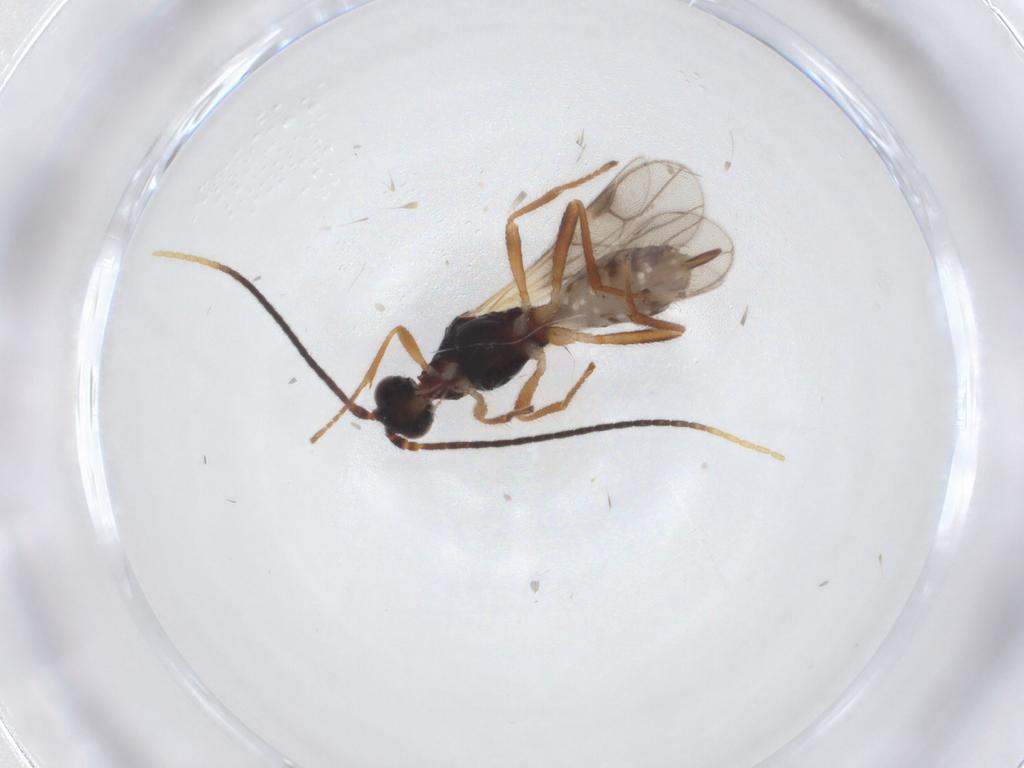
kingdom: Animalia
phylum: Arthropoda
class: Insecta
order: Hymenoptera
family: Braconidae
